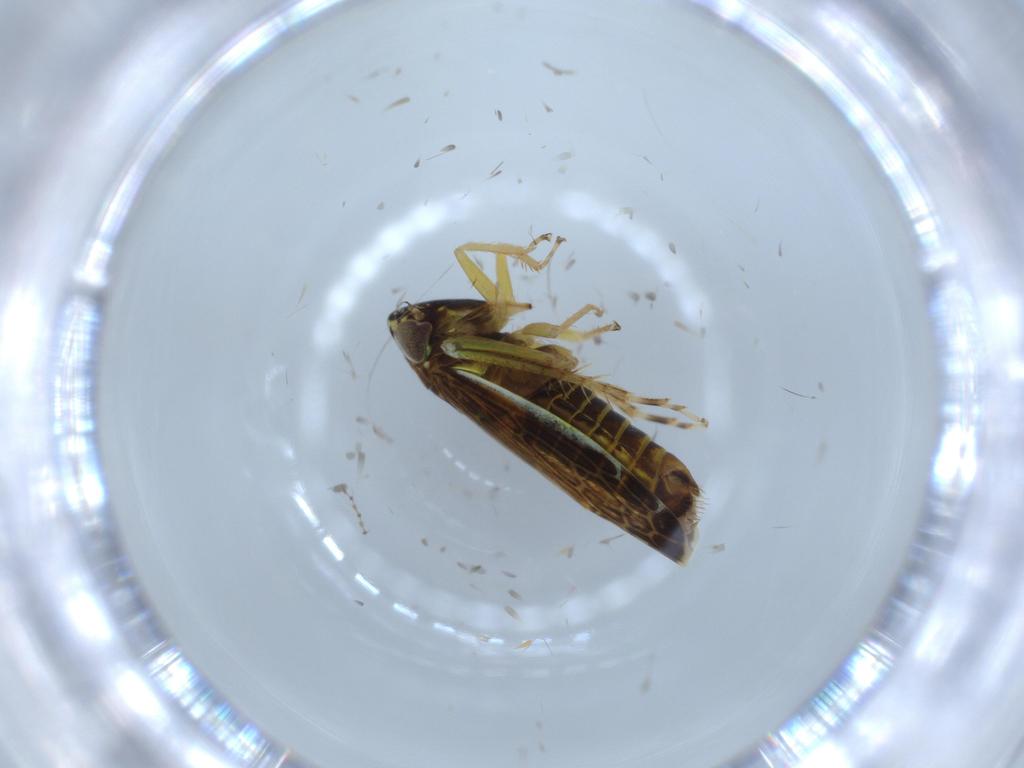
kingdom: Animalia
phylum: Arthropoda
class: Insecta
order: Hemiptera
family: Cicadellidae
